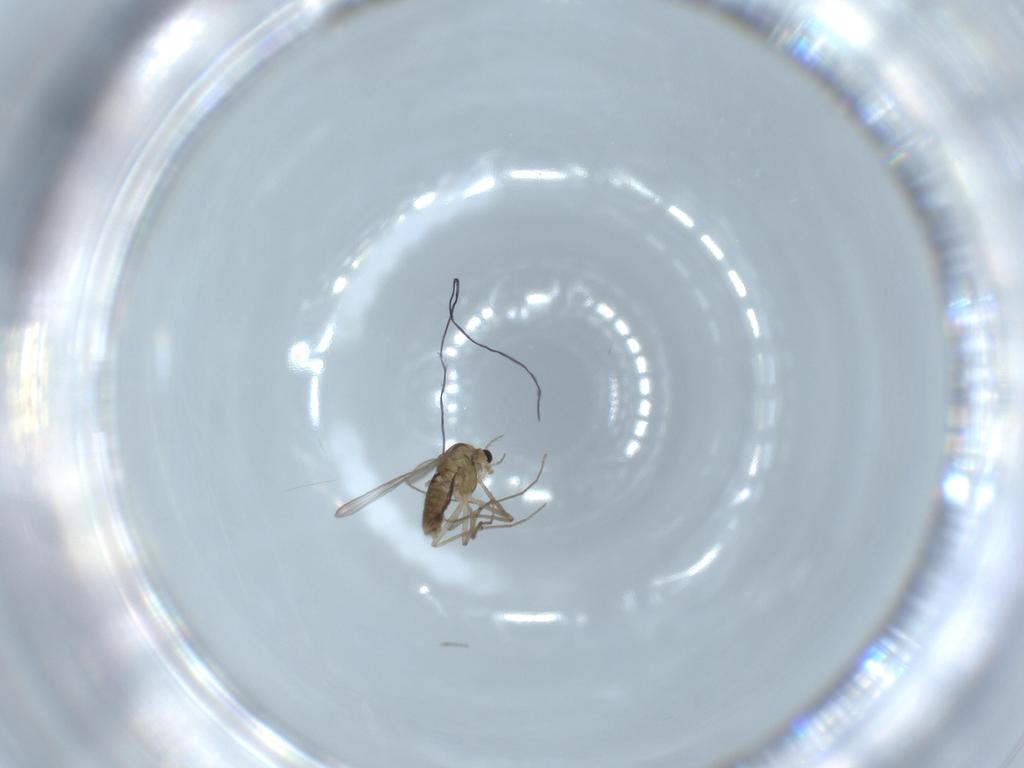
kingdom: Animalia
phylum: Arthropoda
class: Insecta
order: Diptera
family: Chironomidae
